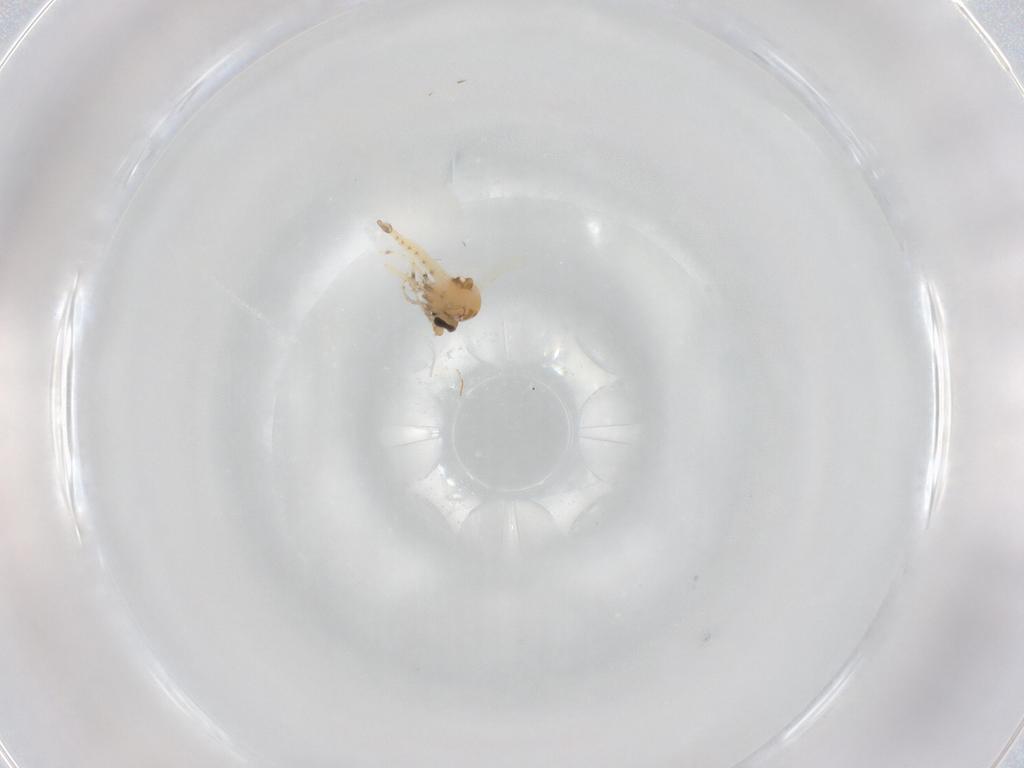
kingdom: Animalia
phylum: Arthropoda
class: Insecta
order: Diptera
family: Ceratopogonidae
